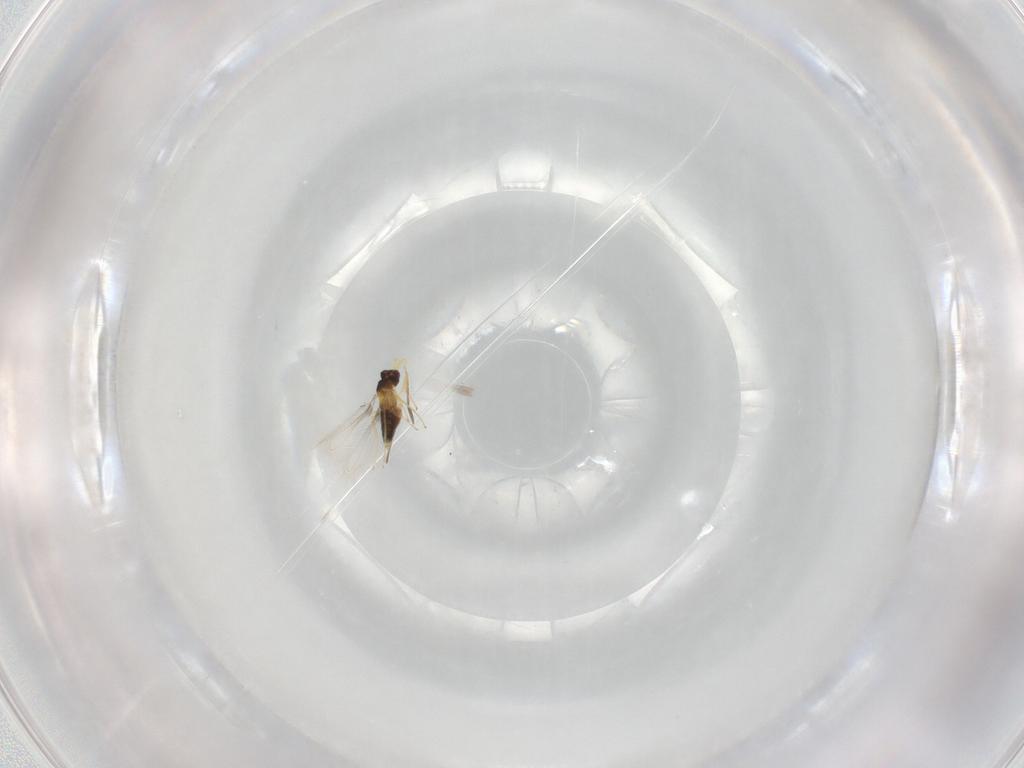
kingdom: Animalia
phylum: Arthropoda
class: Insecta
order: Hymenoptera
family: Mymaridae
